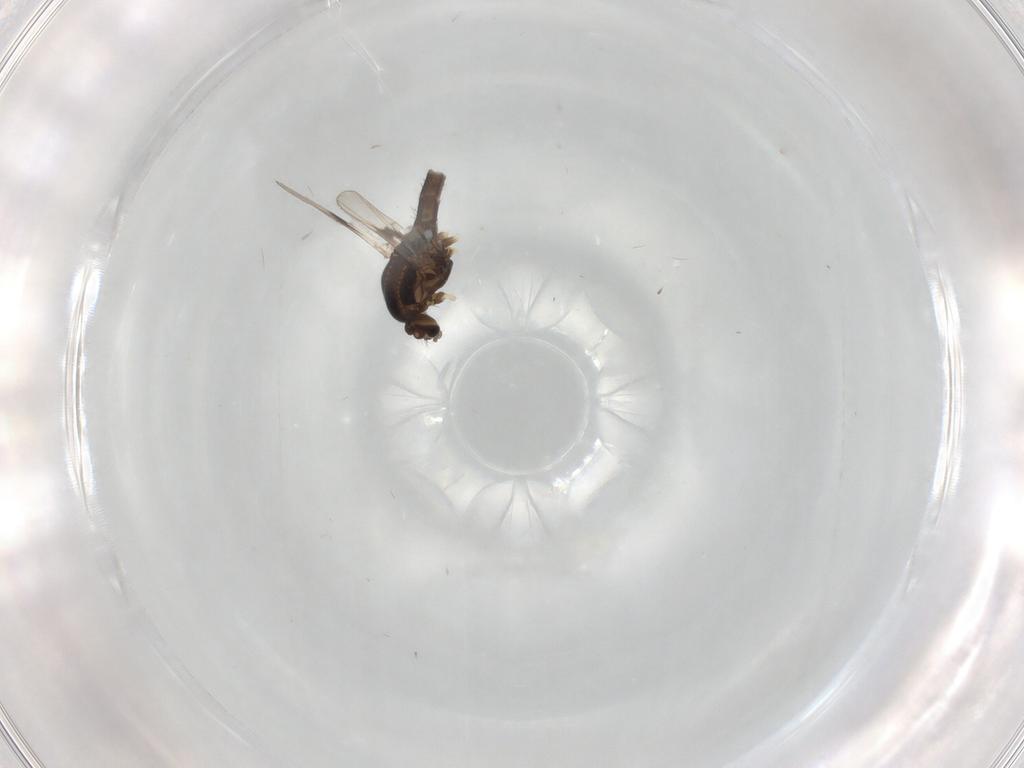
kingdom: Animalia
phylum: Arthropoda
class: Insecta
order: Diptera
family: Chironomidae
